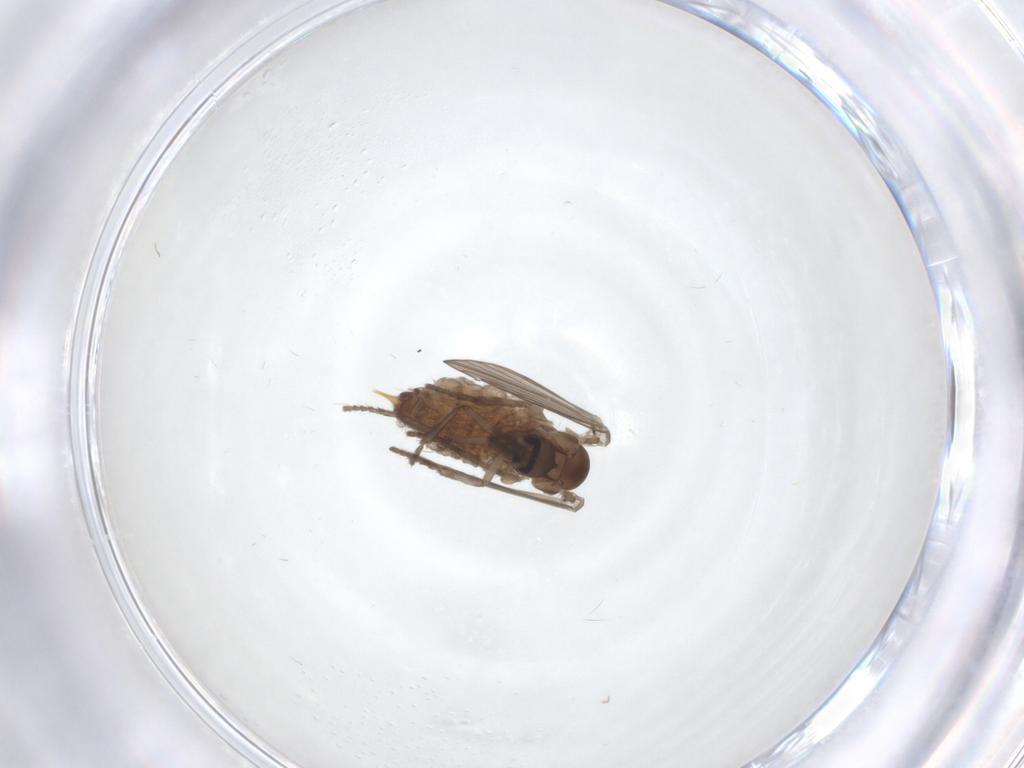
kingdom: Animalia
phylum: Arthropoda
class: Insecta
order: Diptera
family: Psychodidae
